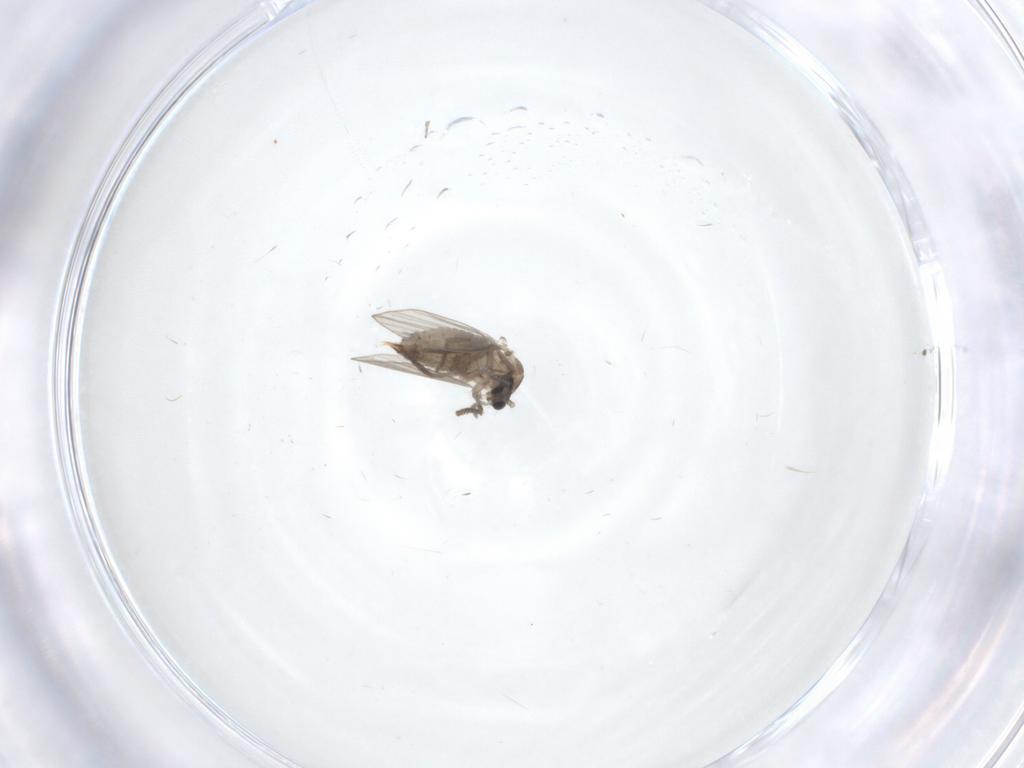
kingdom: Animalia
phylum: Arthropoda
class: Insecta
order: Diptera
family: Psychodidae
